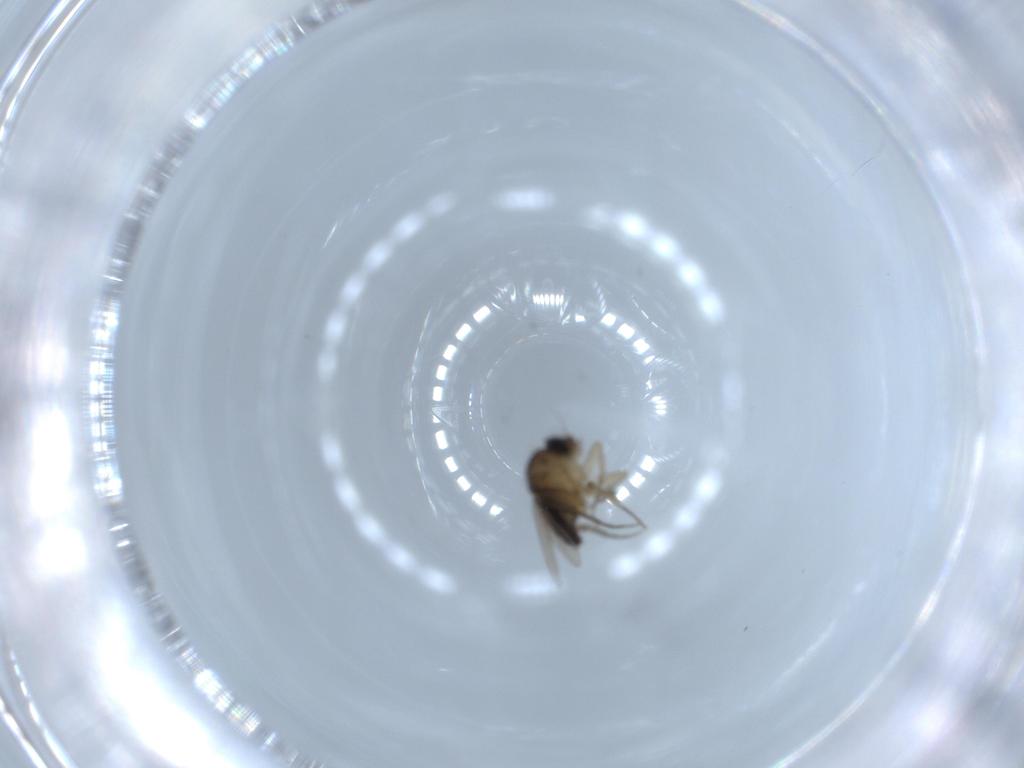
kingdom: Animalia
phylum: Arthropoda
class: Insecta
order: Diptera
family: Chironomidae
